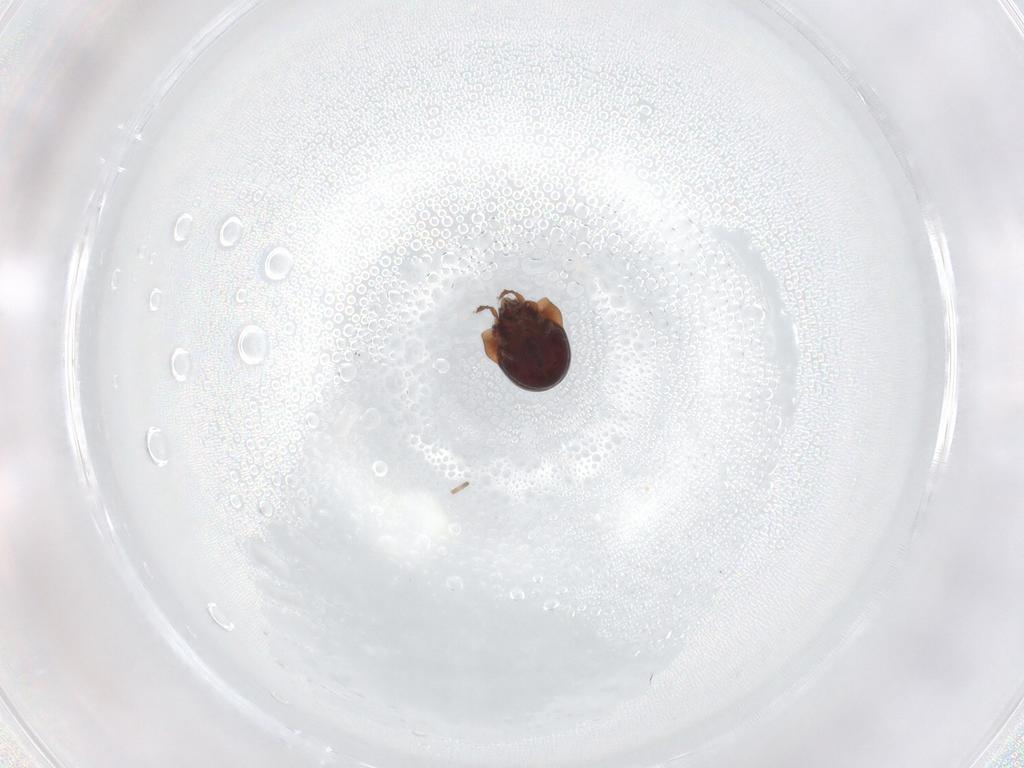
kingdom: Animalia
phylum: Arthropoda
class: Arachnida
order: Sarcoptiformes
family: Humerobatidae
